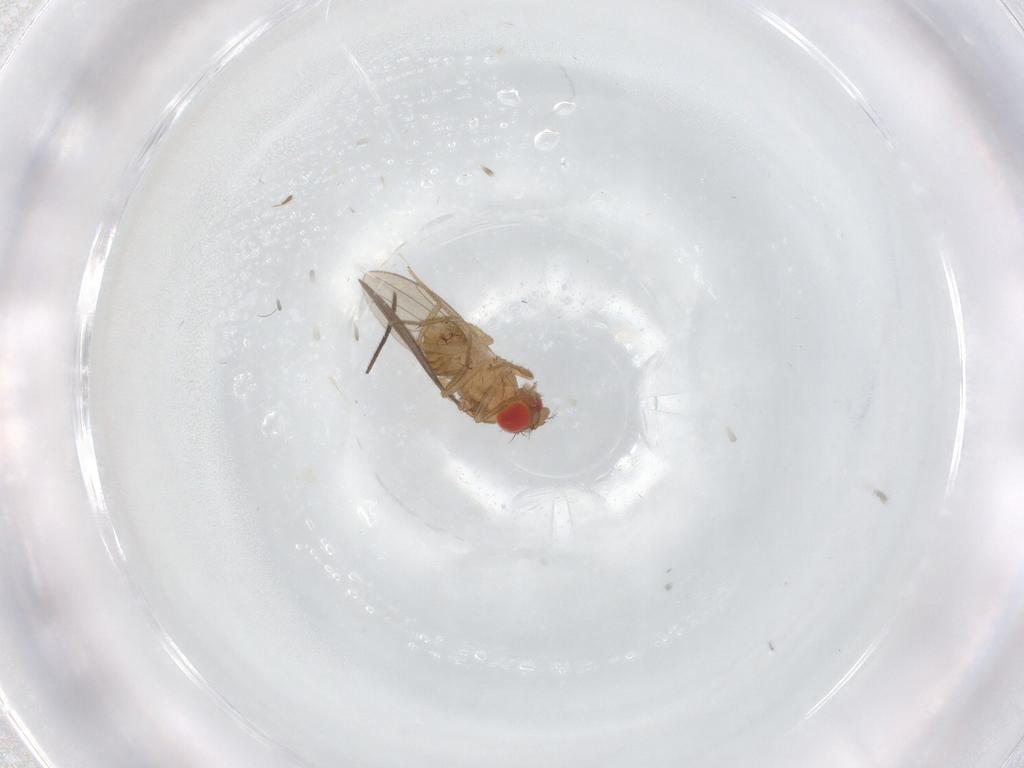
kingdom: Animalia
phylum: Arthropoda
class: Insecta
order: Diptera
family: Drosophilidae
